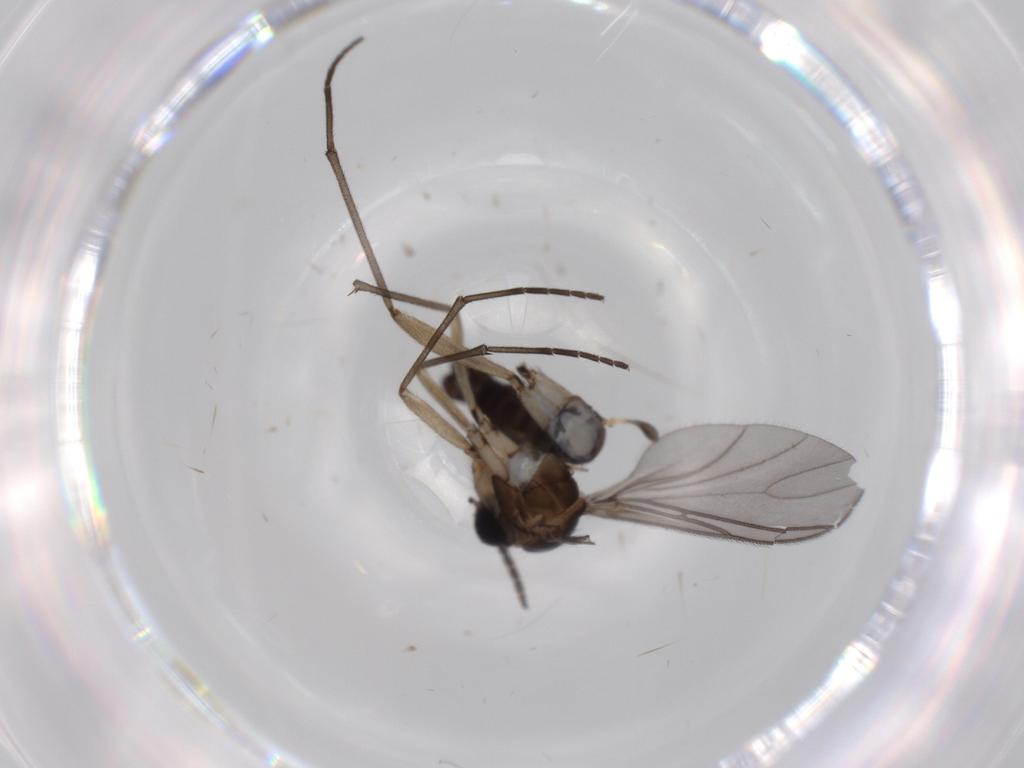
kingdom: Animalia
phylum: Arthropoda
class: Insecta
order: Diptera
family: Sciaridae
